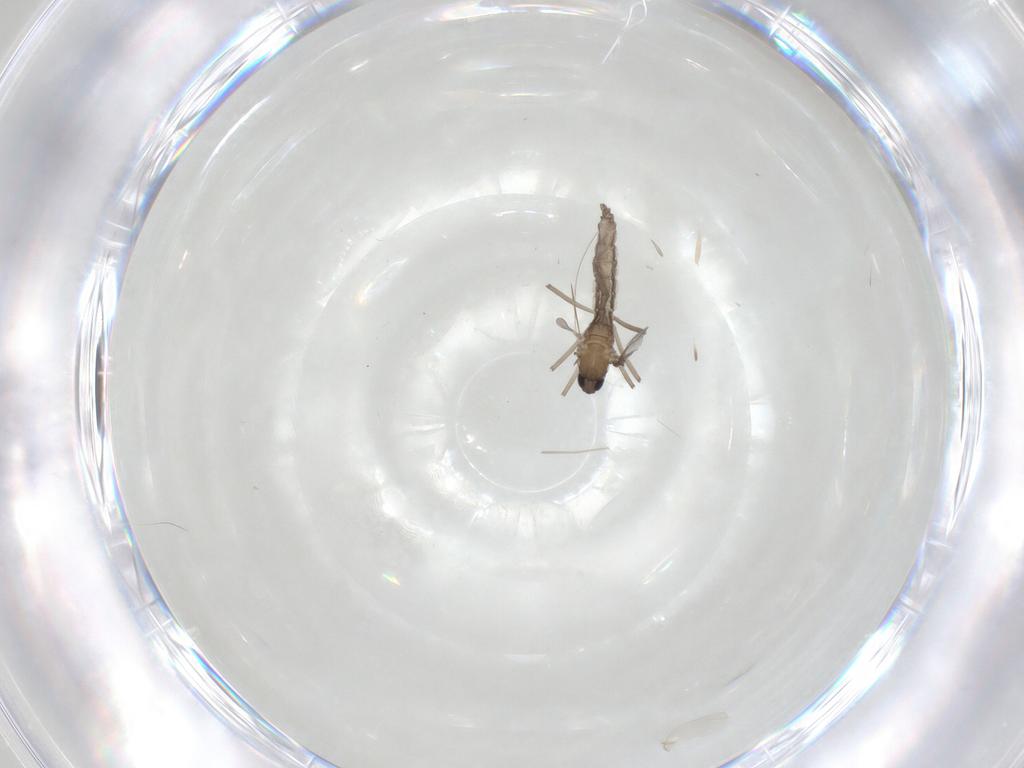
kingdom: Animalia
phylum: Arthropoda
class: Insecta
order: Diptera
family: Cecidomyiidae
